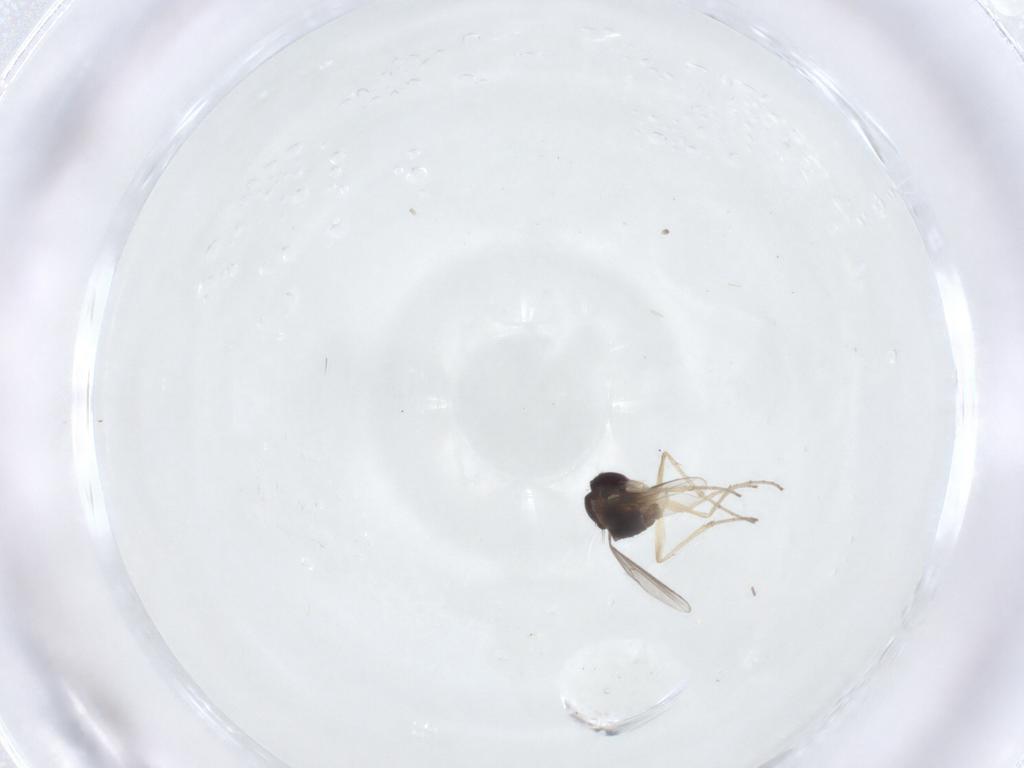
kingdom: Animalia
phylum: Arthropoda
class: Insecta
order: Diptera
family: Dolichopodidae
